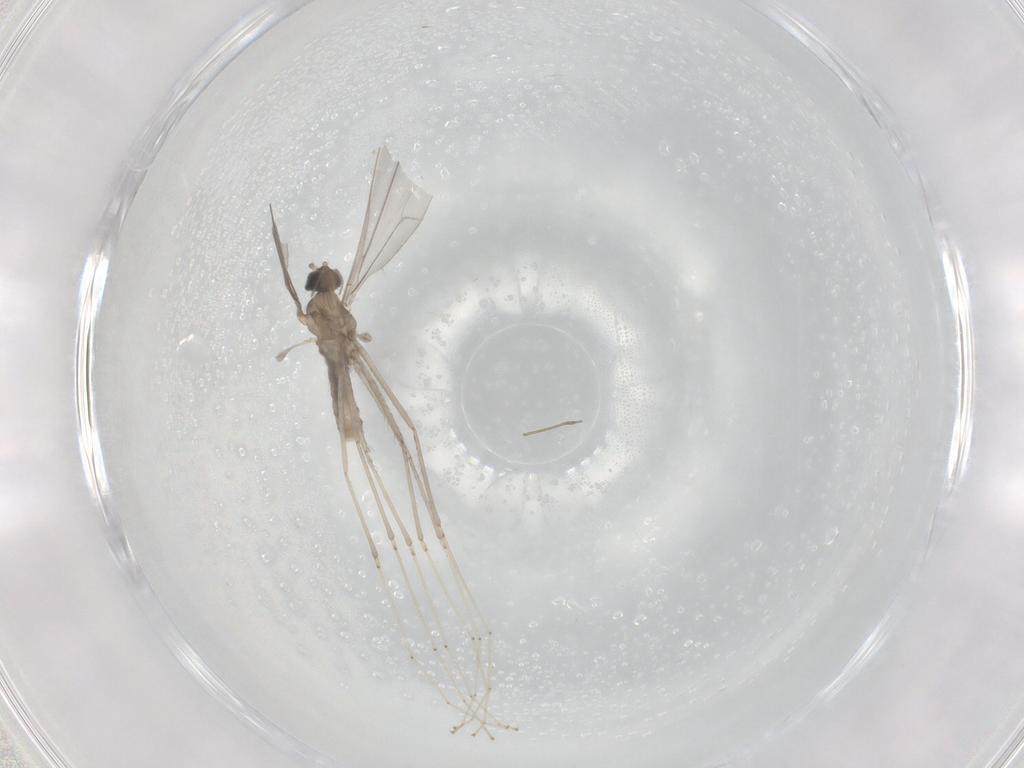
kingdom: Animalia
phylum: Arthropoda
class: Insecta
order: Diptera
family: Cecidomyiidae
